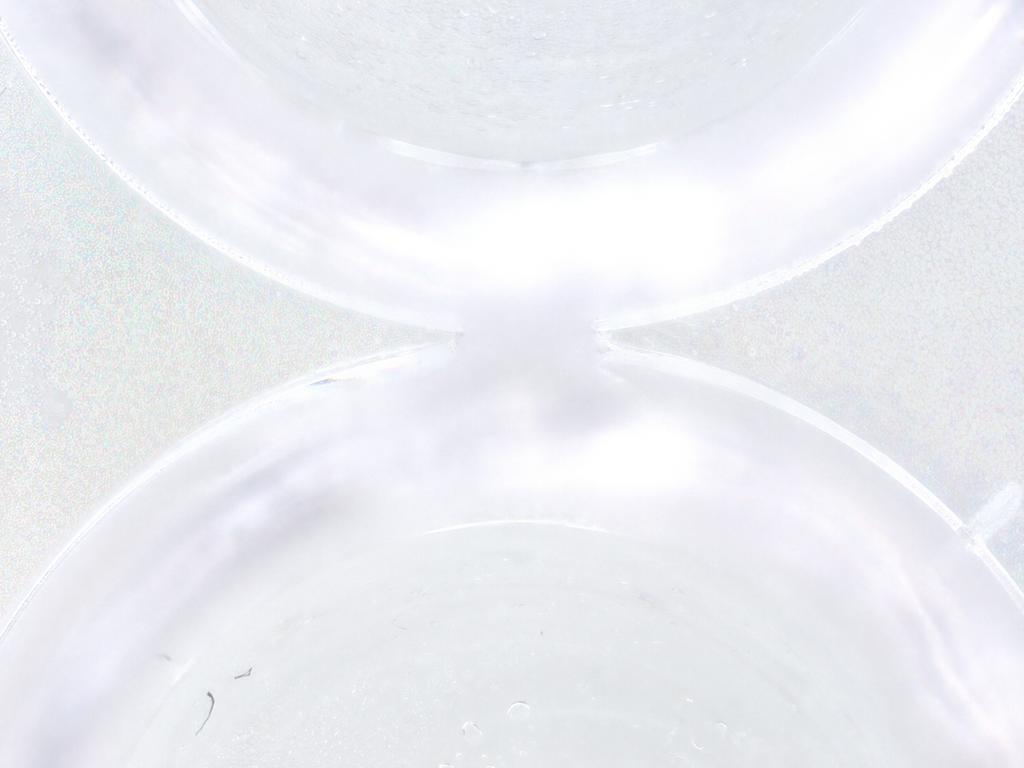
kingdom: Animalia
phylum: Arthropoda
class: Insecta
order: Diptera
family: Psychodidae
